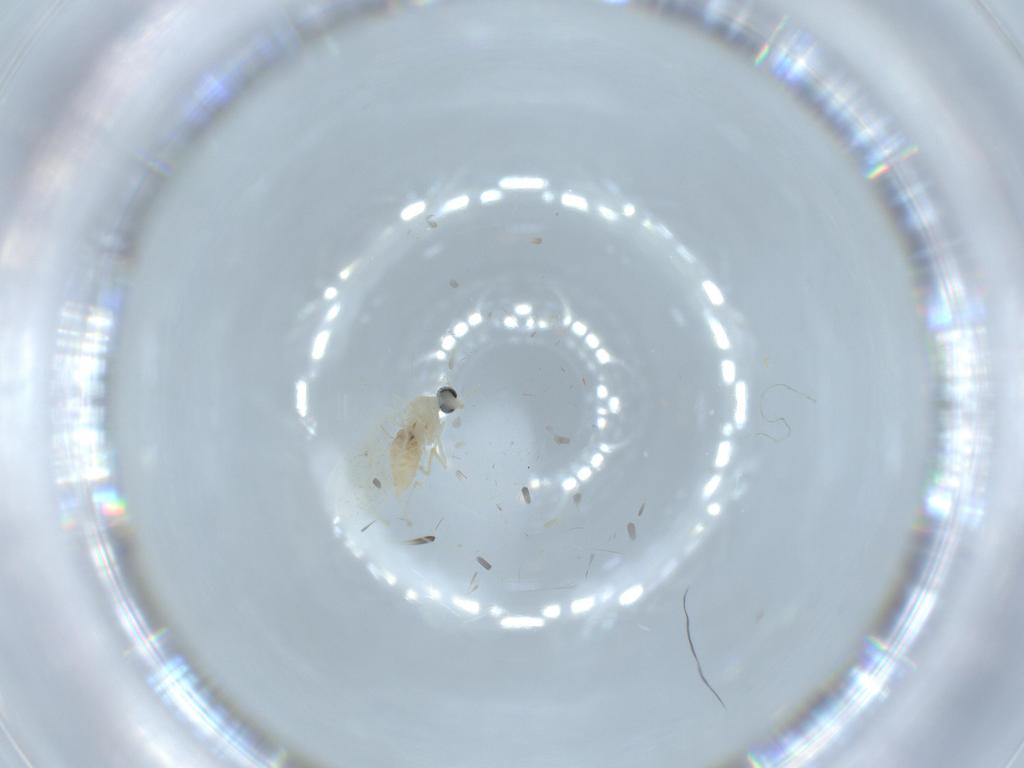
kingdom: Animalia
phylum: Arthropoda
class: Insecta
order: Diptera
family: Cecidomyiidae
